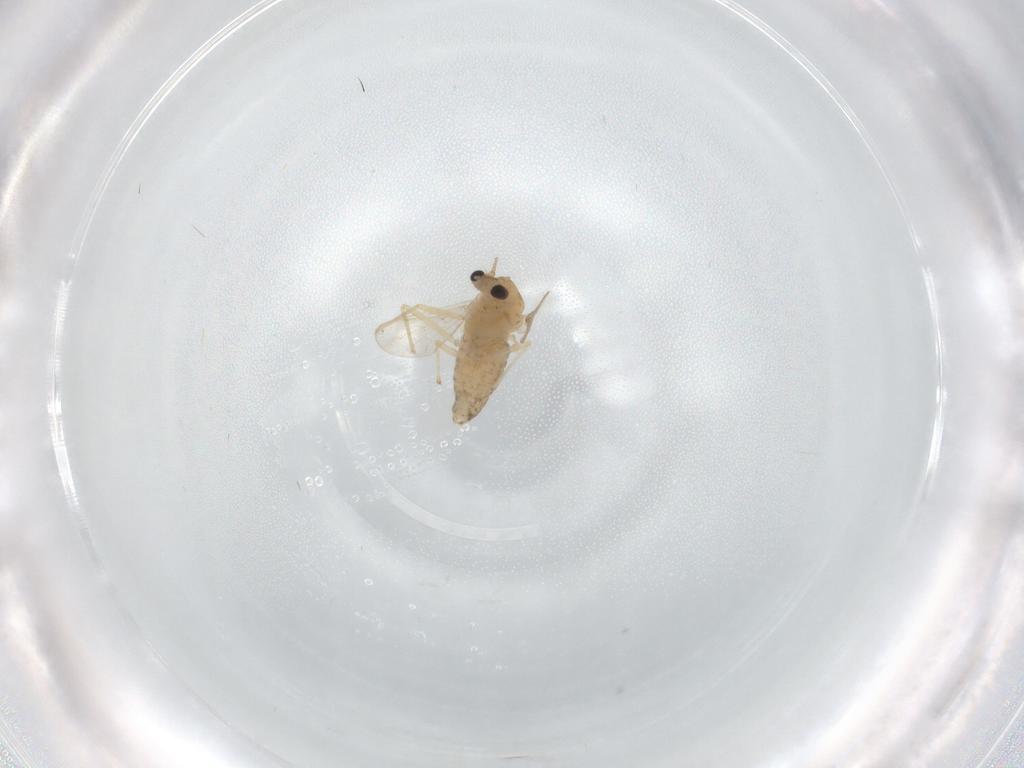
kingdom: Animalia
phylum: Arthropoda
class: Insecta
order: Diptera
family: Chironomidae
